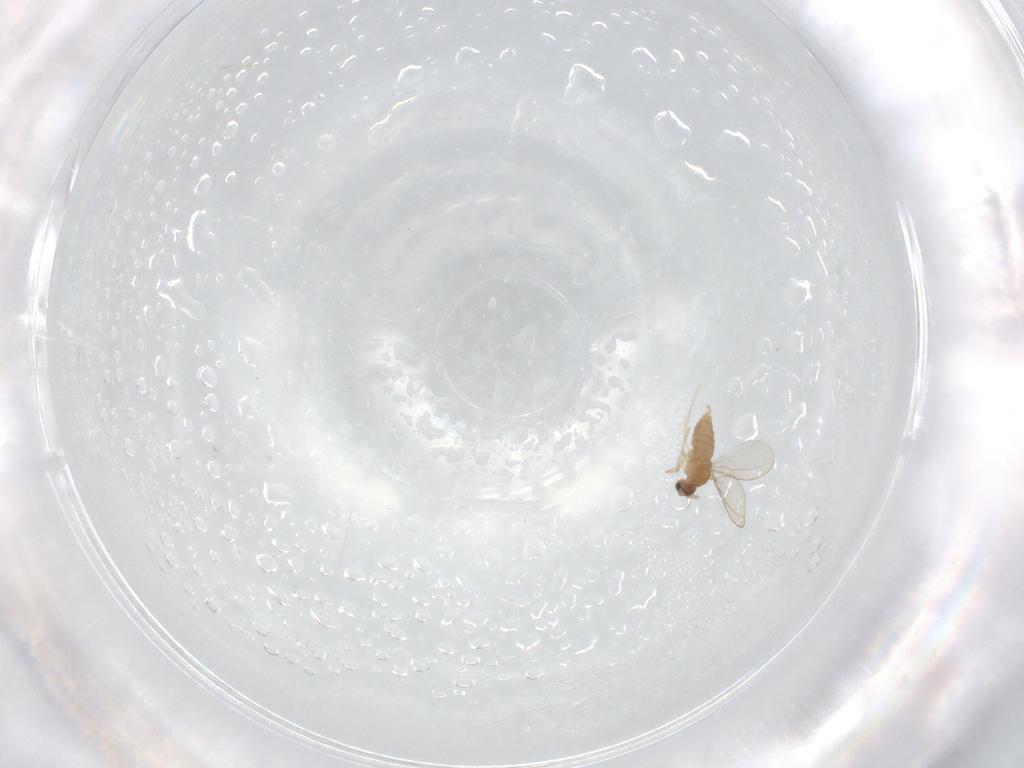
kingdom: Animalia
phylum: Arthropoda
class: Insecta
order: Diptera
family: Cecidomyiidae
